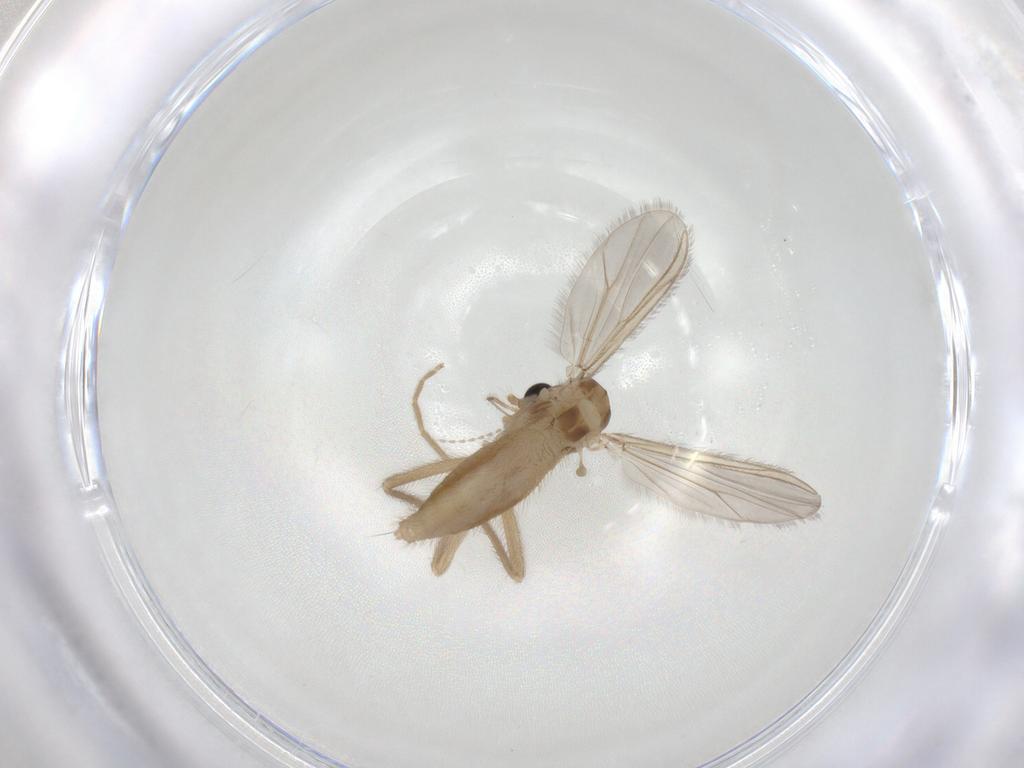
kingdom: Animalia
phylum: Arthropoda
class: Insecta
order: Diptera
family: Chironomidae
